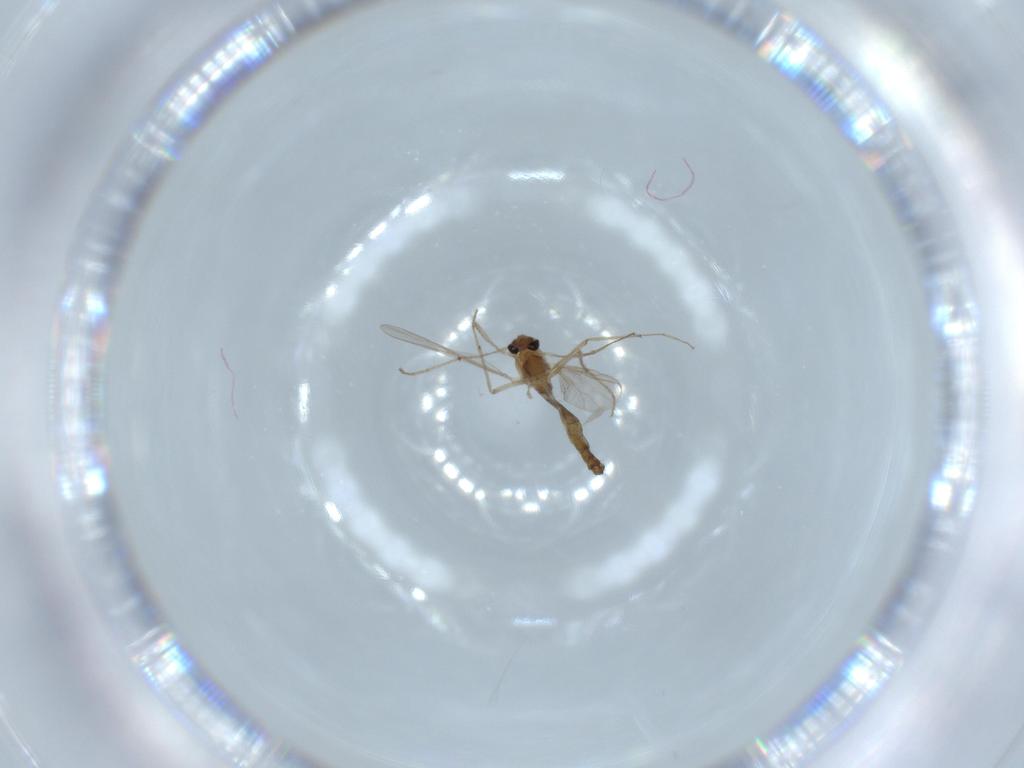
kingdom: Animalia
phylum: Arthropoda
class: Insecta
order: Diptera
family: Chironomidae
